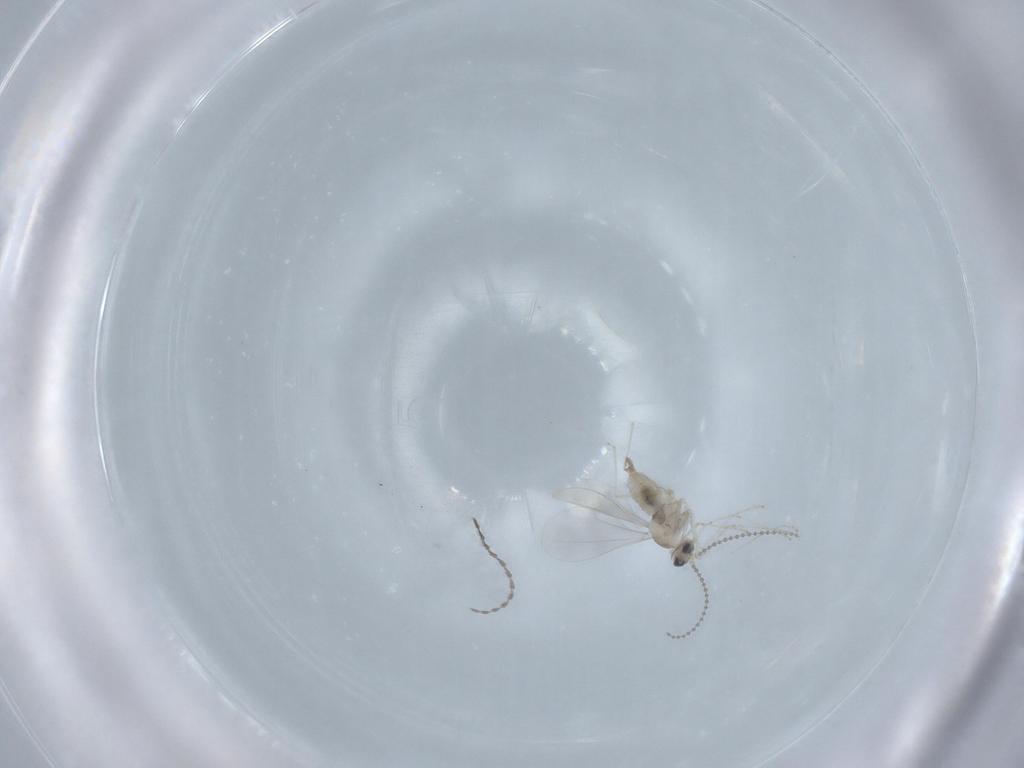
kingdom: Animalia
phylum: Arthropoda
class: Insecta
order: Diptera
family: Cecidomyiidae
